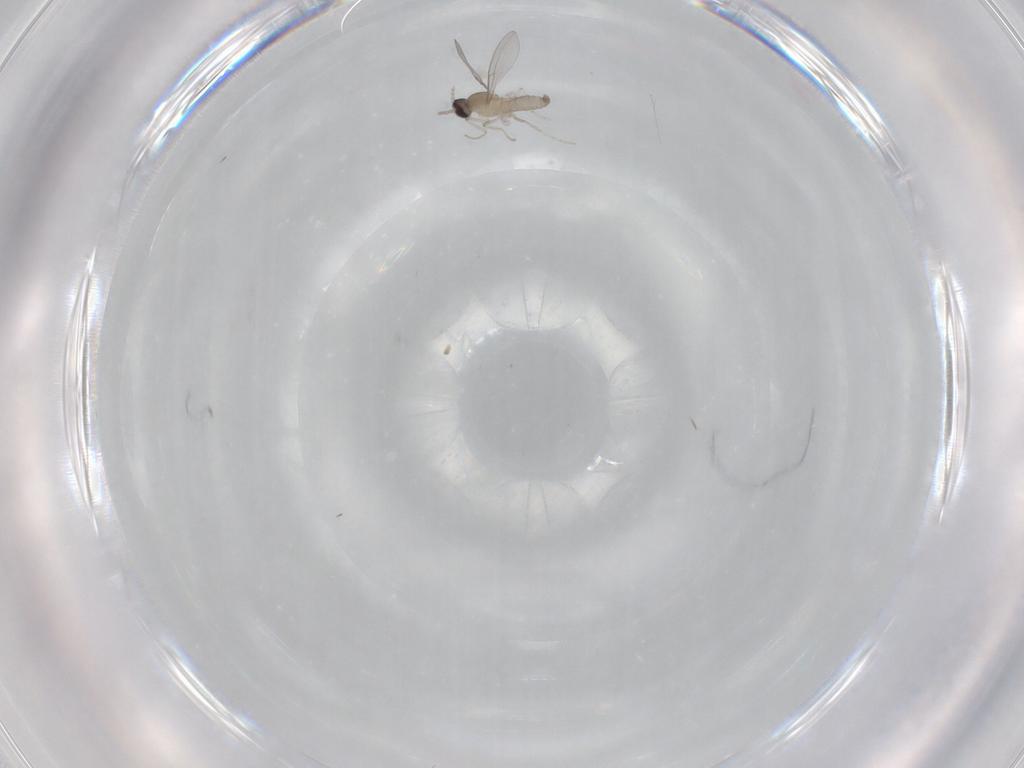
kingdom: Animalia
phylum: Arthropoda
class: Insecta
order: Diptera
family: Cecidomyiidae
